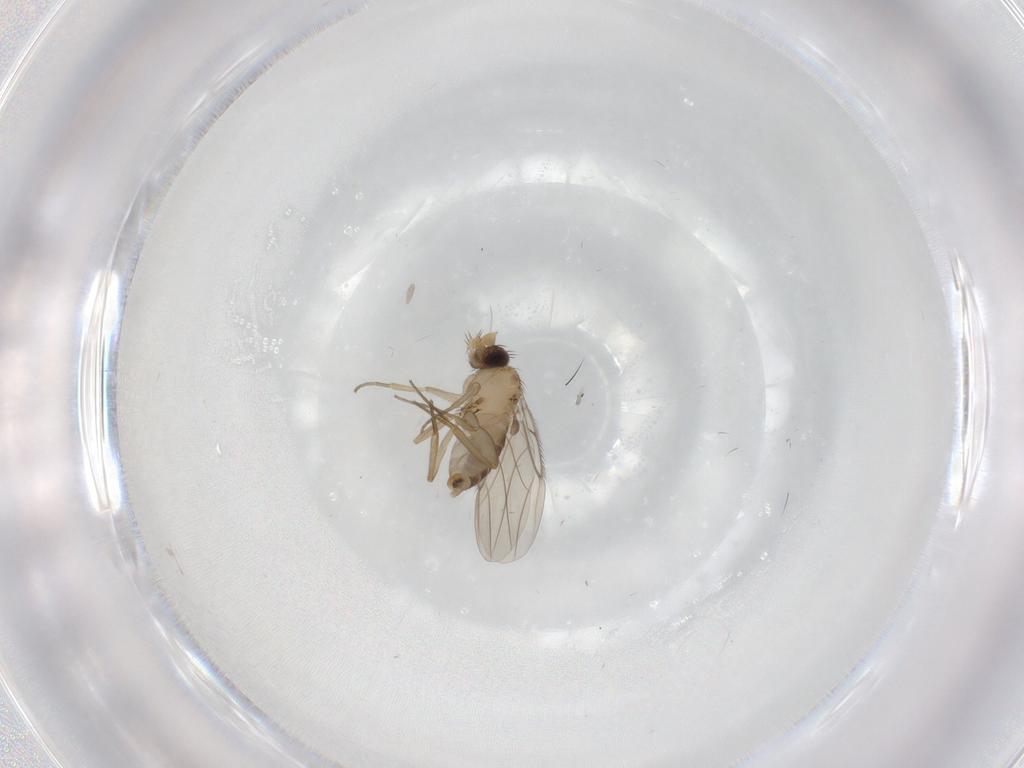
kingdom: Animalia
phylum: Arthropoda
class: Insecta
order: Diptera
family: Phoridae
